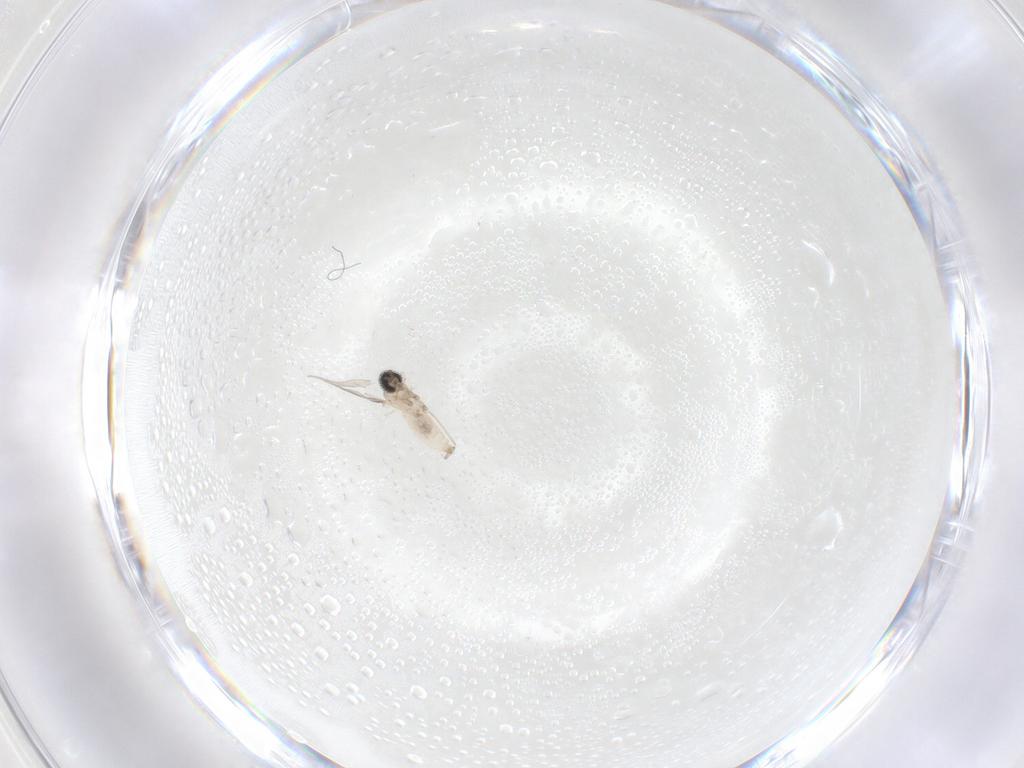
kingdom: Animalia
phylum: Arthropoda
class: Insecta
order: Diptera
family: Cecidomyiidae
